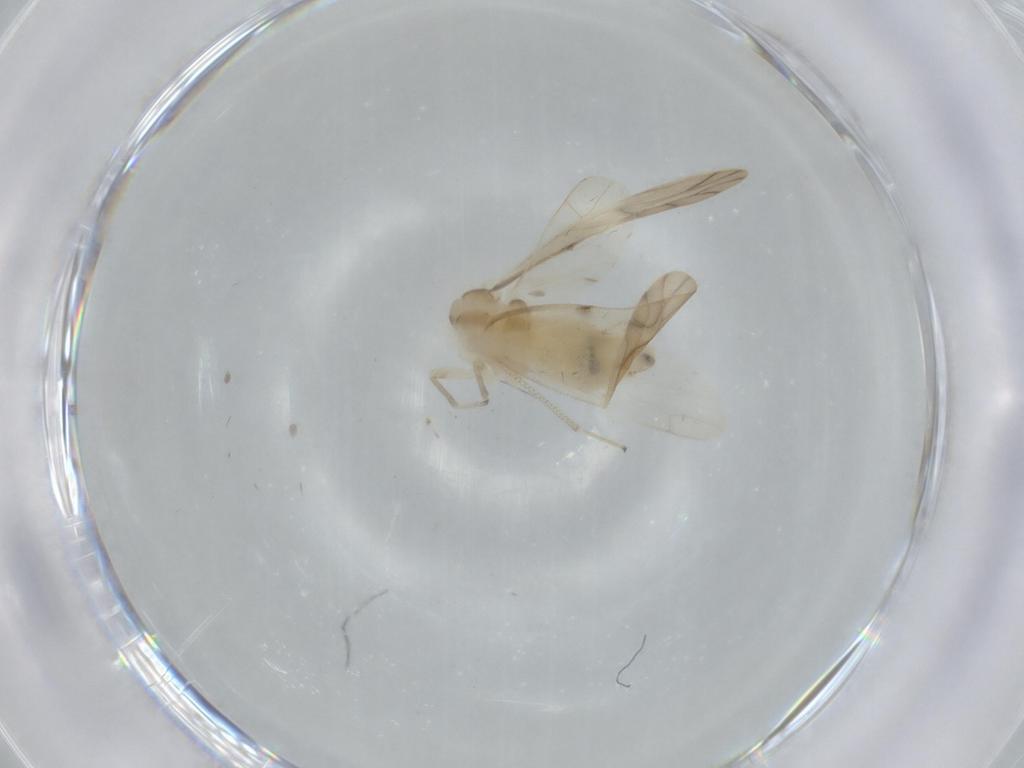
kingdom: Animalia
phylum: Arthropoda
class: Insecta
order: Psocodea
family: Caeciliusidae
